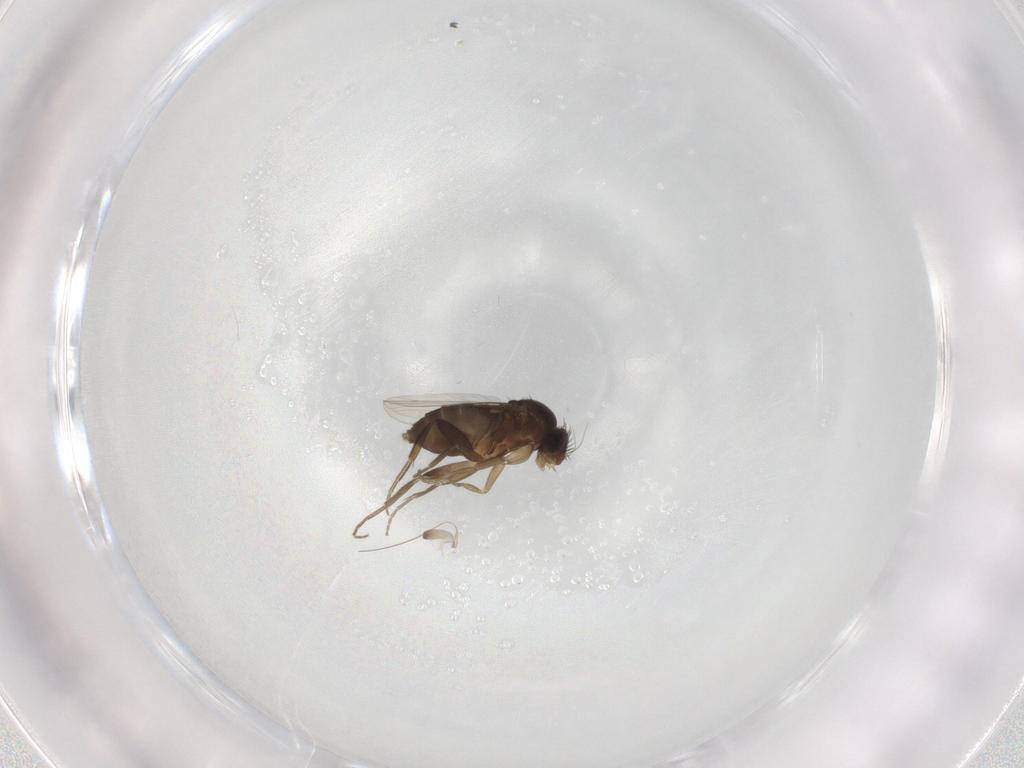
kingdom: Animalia
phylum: Arthropoda
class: Insecta
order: Diptera
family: Phoridae
